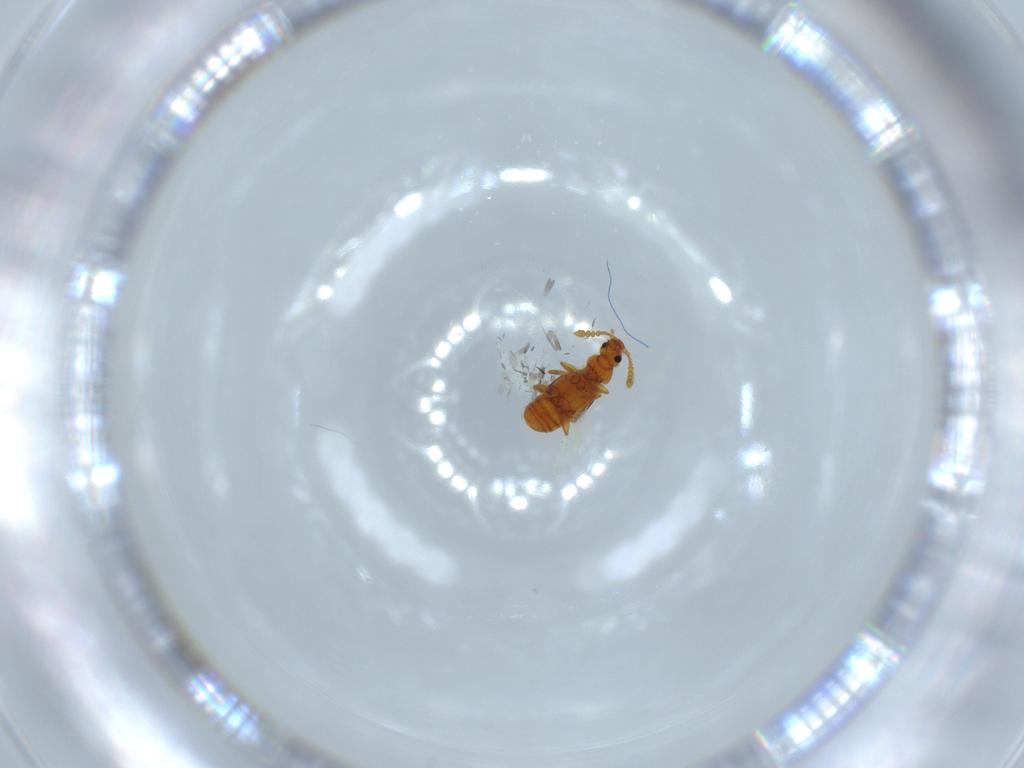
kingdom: Animalia
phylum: Arthropoda
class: Insecta
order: Coleoptera
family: Staphylinidae
